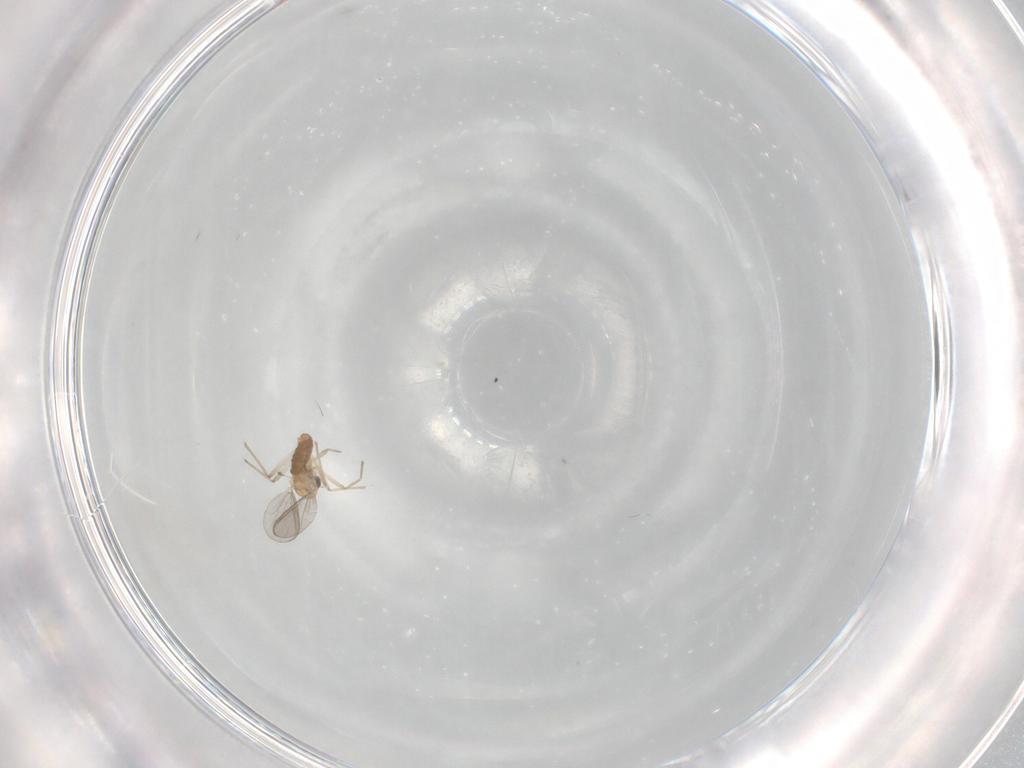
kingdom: Animalia
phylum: Arthropoda
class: Insecta
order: Diptera
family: Chironomidae
